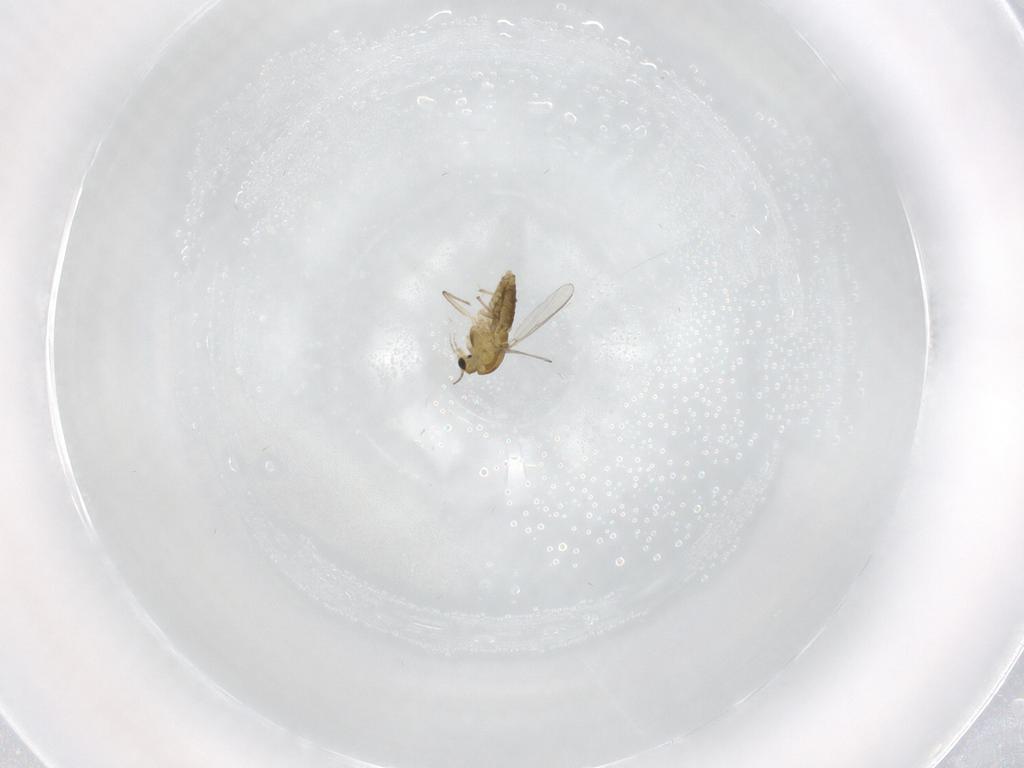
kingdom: Animalia
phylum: Arthropoda
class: Insecta
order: Diptera
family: Chironomidae
